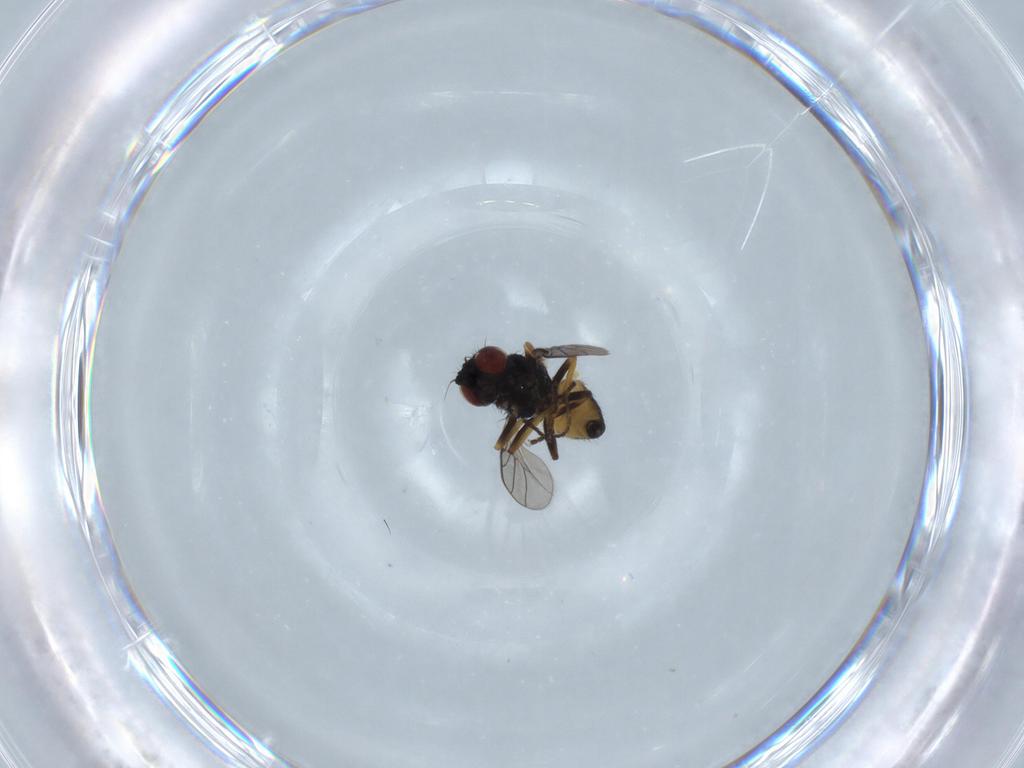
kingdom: Animalia
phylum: Arthropoda
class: Insecta
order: Diptera
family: Chloropidae
